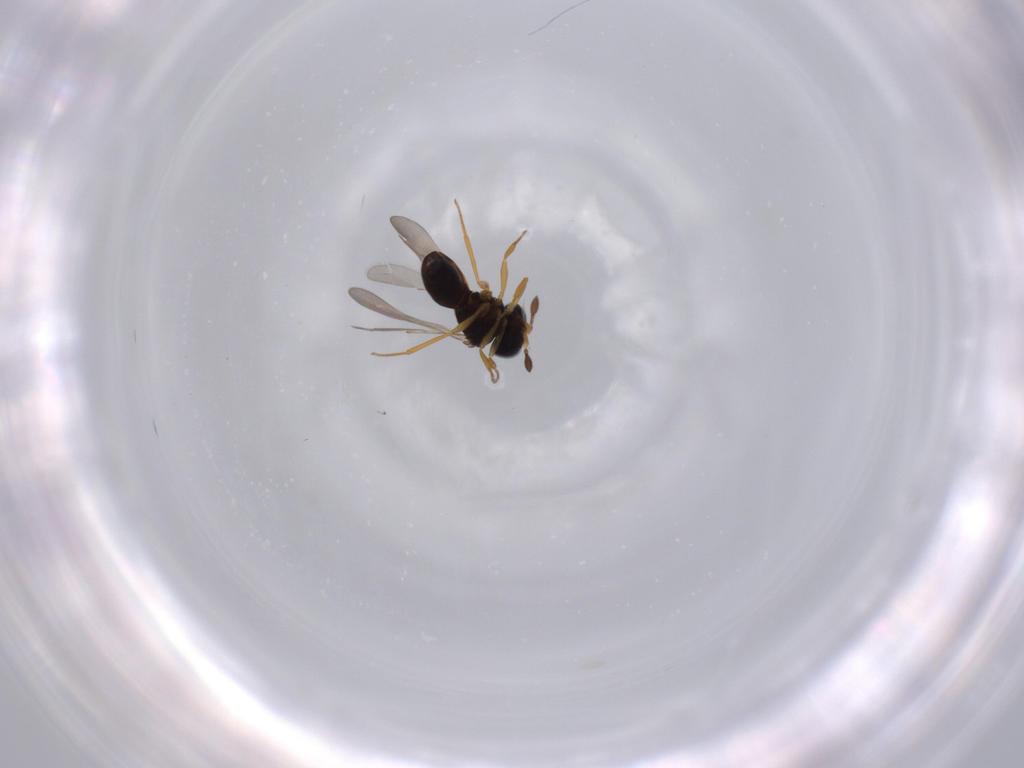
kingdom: Animalia
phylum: Arthropoda
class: Insecta
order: Hymenoptera
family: Scelionidae
